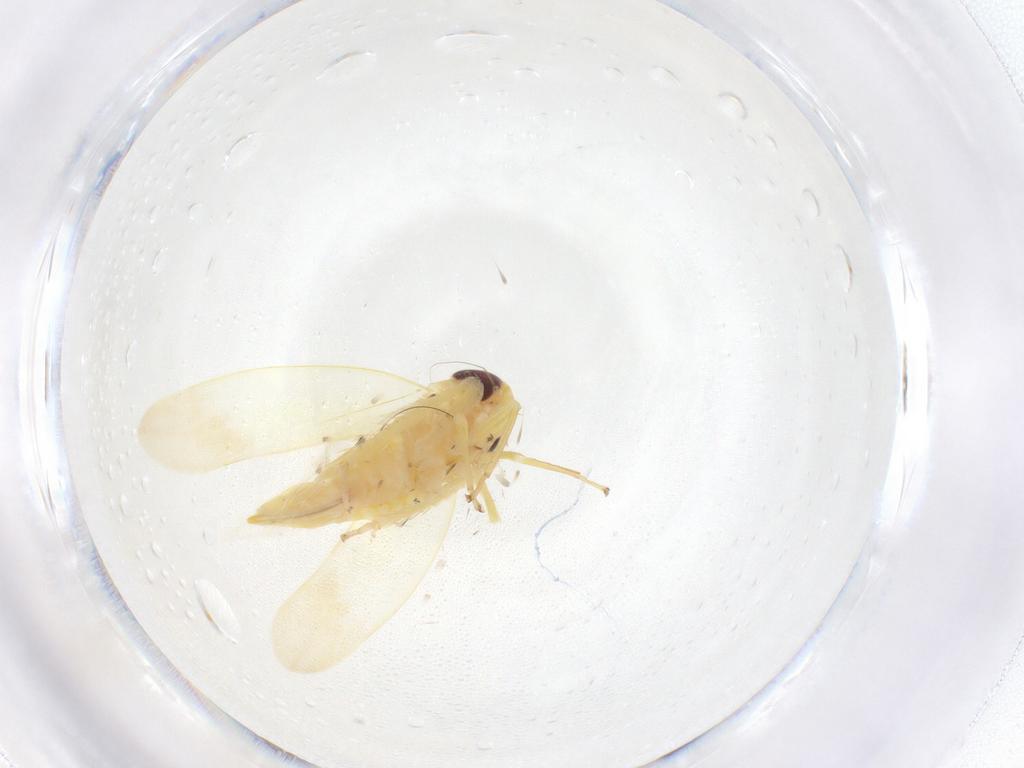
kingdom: Animalia
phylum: Arthropoda
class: Insecta
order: Hemiptera
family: Cicadellidae
